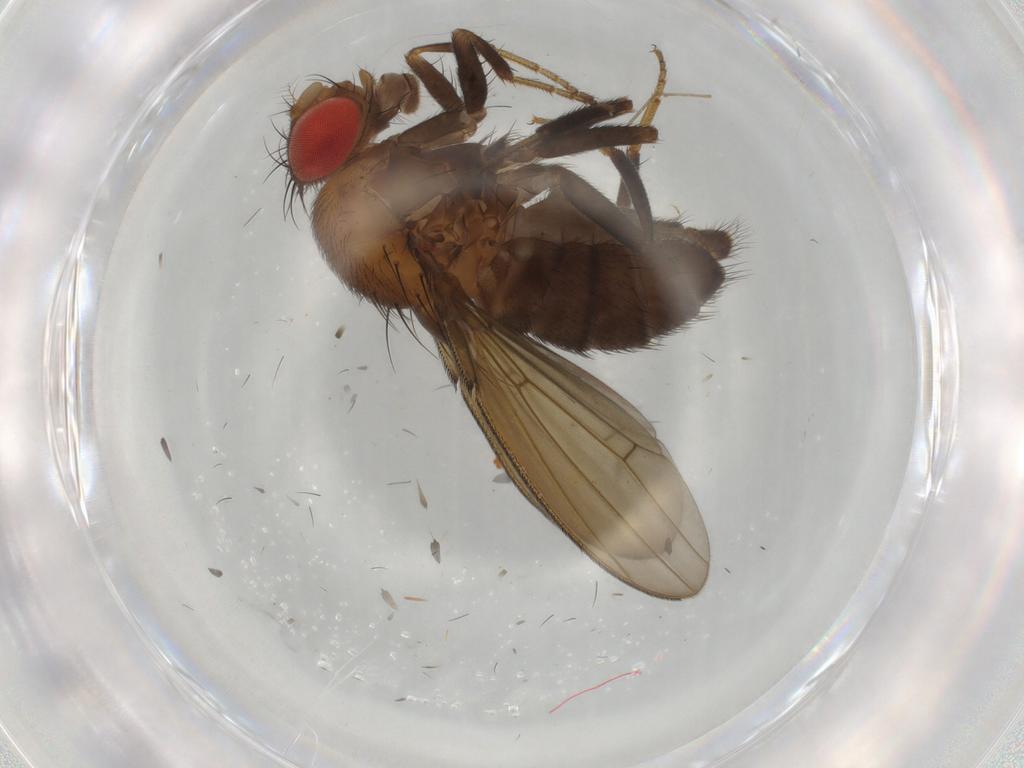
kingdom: Animalia
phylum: Arthropoda
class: Insecta
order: Diptera
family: Drosophilidae
